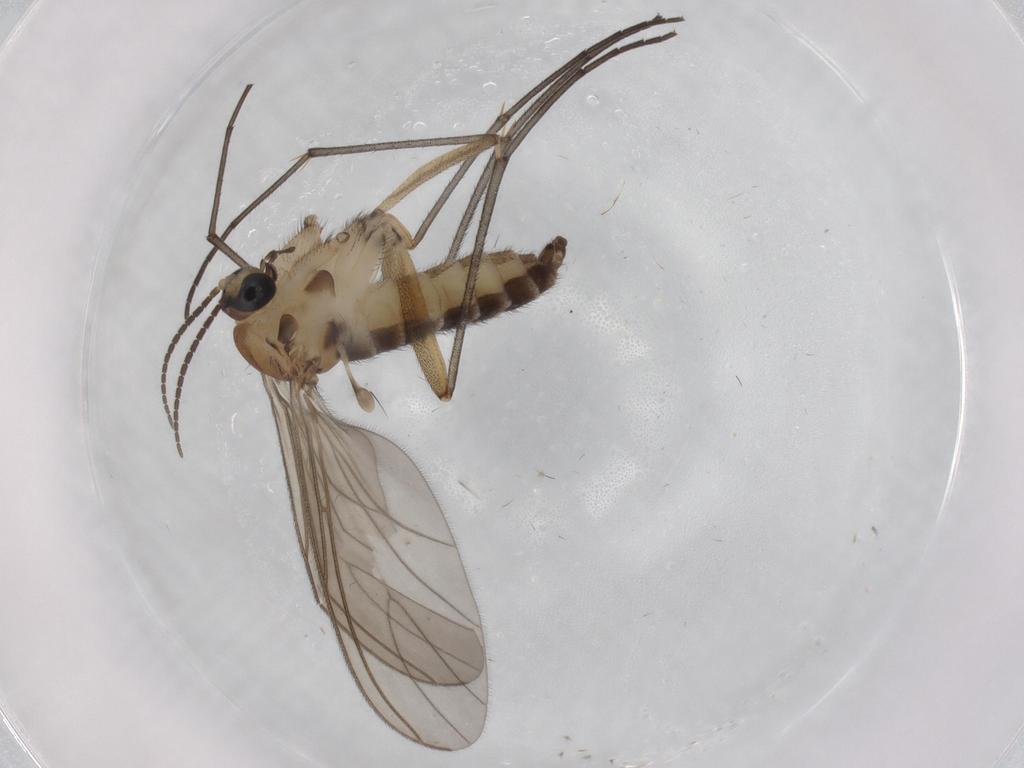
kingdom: Animalia
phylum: Arthropoda
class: Insecta
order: Diptera
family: Sciaridae
